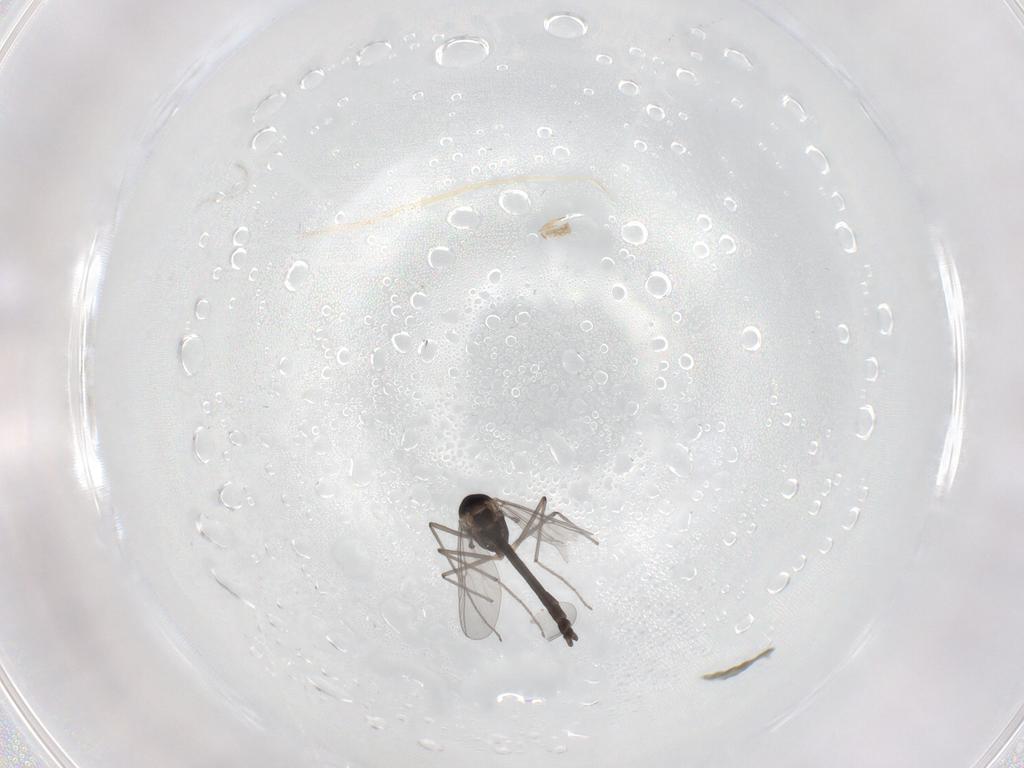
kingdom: Animalia
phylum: Arthropoda
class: Insecta
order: Diptera
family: Chironomidae
